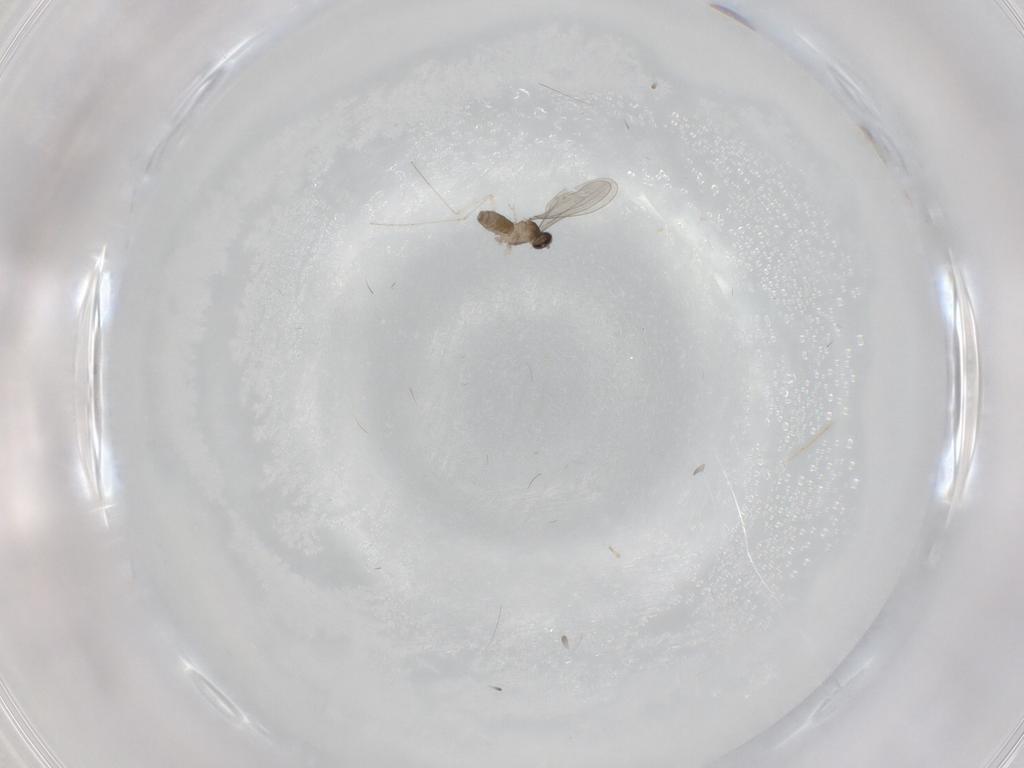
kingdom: Animalia
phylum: Arthropoda
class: Insecta
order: Diptera
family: Cecidomyiidae
